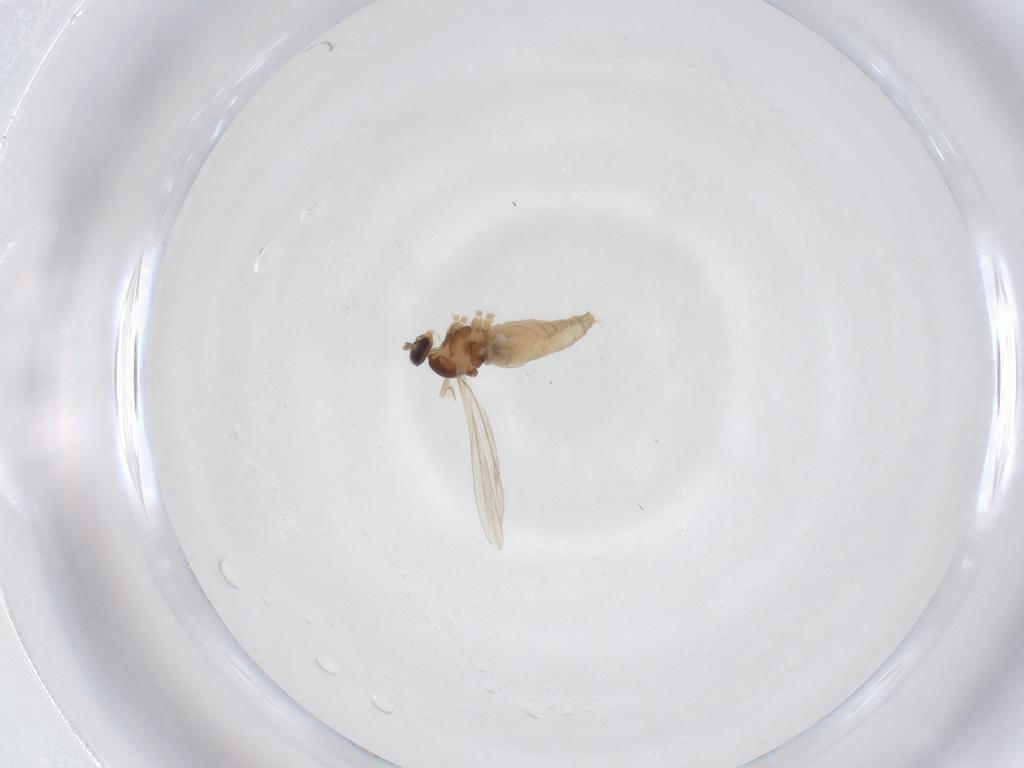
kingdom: Animalia
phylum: Arthropoda
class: Insecta
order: Diptera
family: Cecidomyiidae
